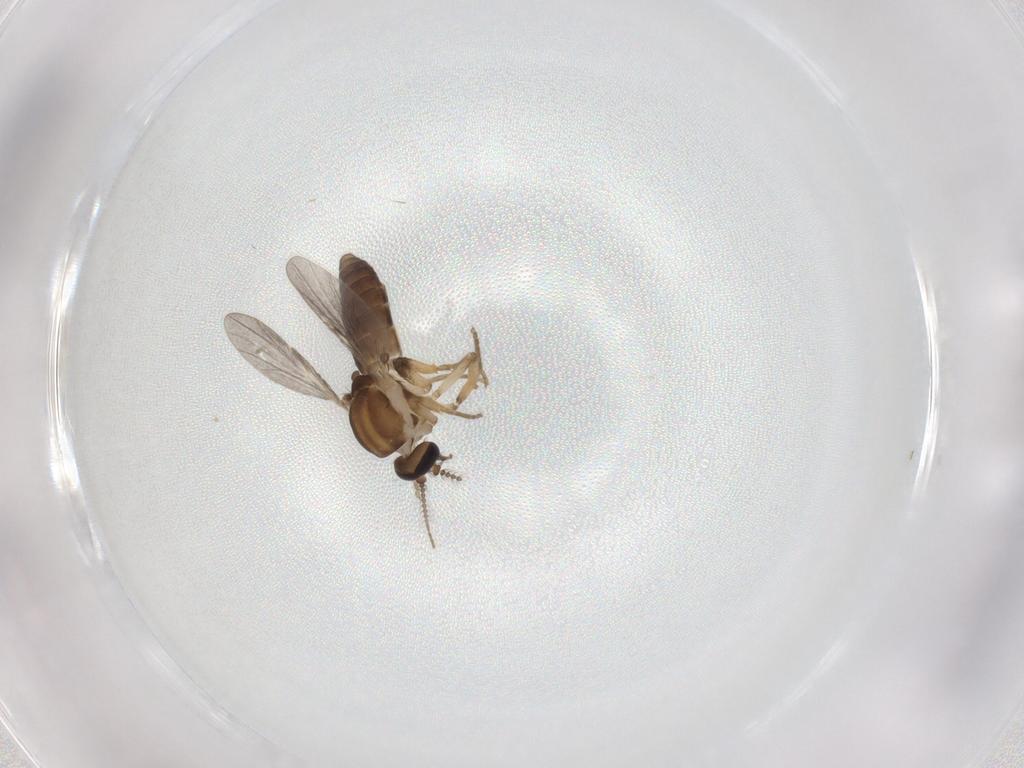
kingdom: Animalia
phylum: Arthropoda
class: Insecta
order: Diptera
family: Ceratopogonidae
